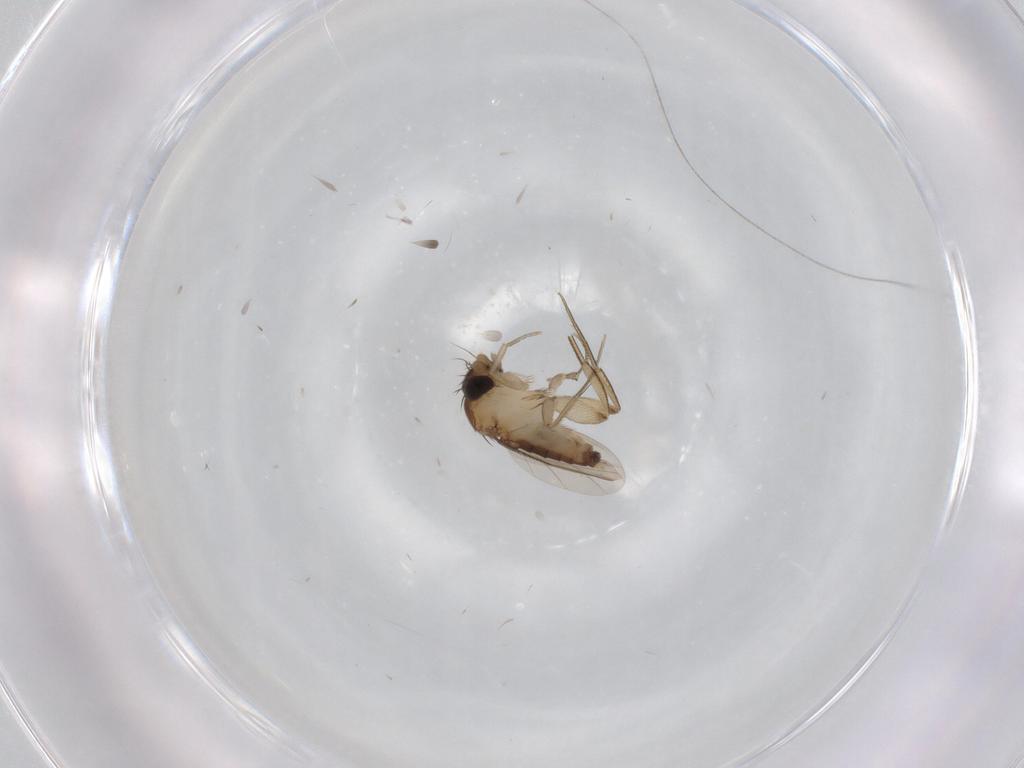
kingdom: Animalia
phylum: Arthropoda
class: Insecta
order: Diptera
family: Phoridae
